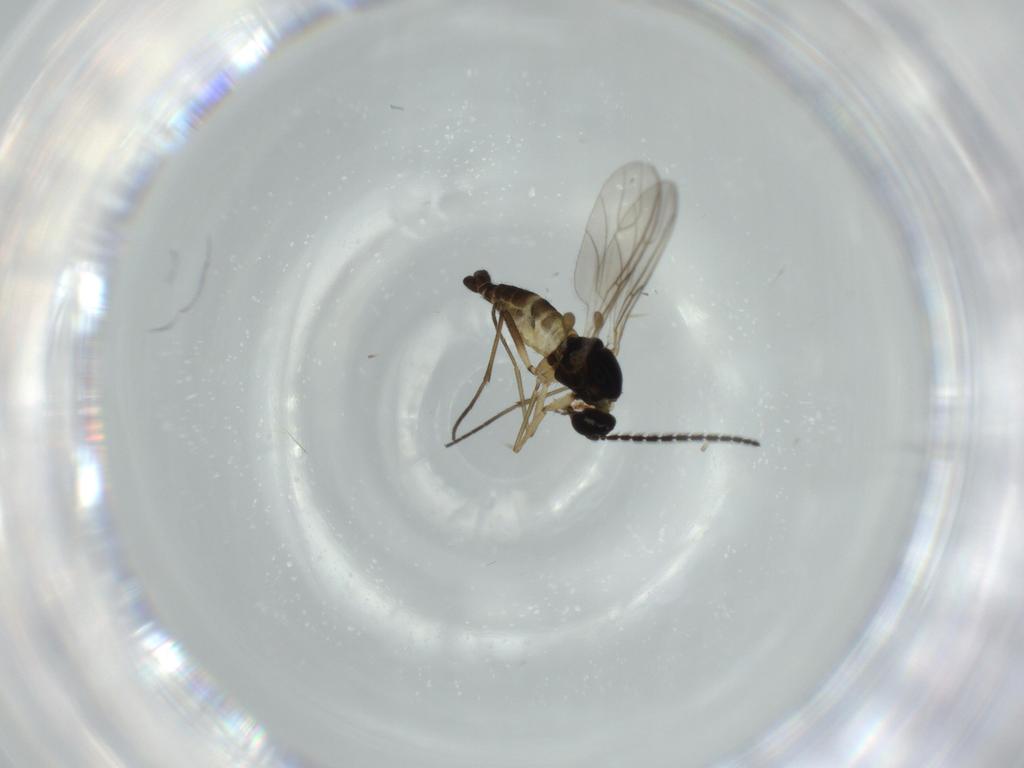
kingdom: Animalia
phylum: Arthropoda
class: Insecta
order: Diptera
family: Sciaridae
